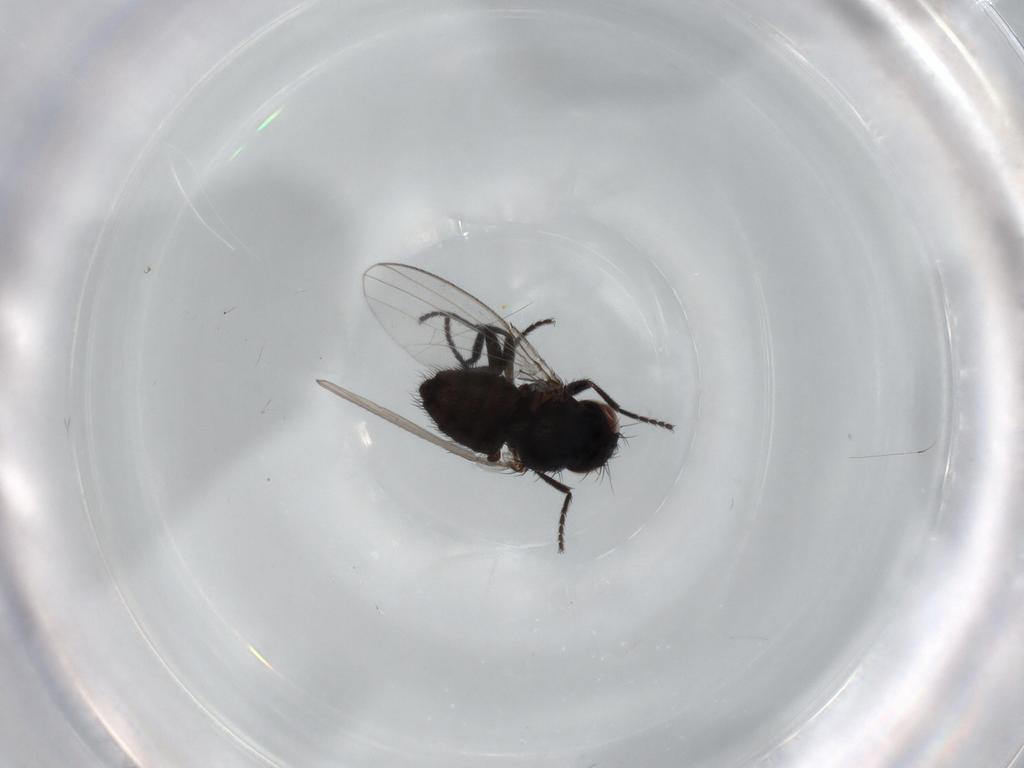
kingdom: Animalia
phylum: Arthropoda
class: Insecta
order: Diptera
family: Milichiidae
